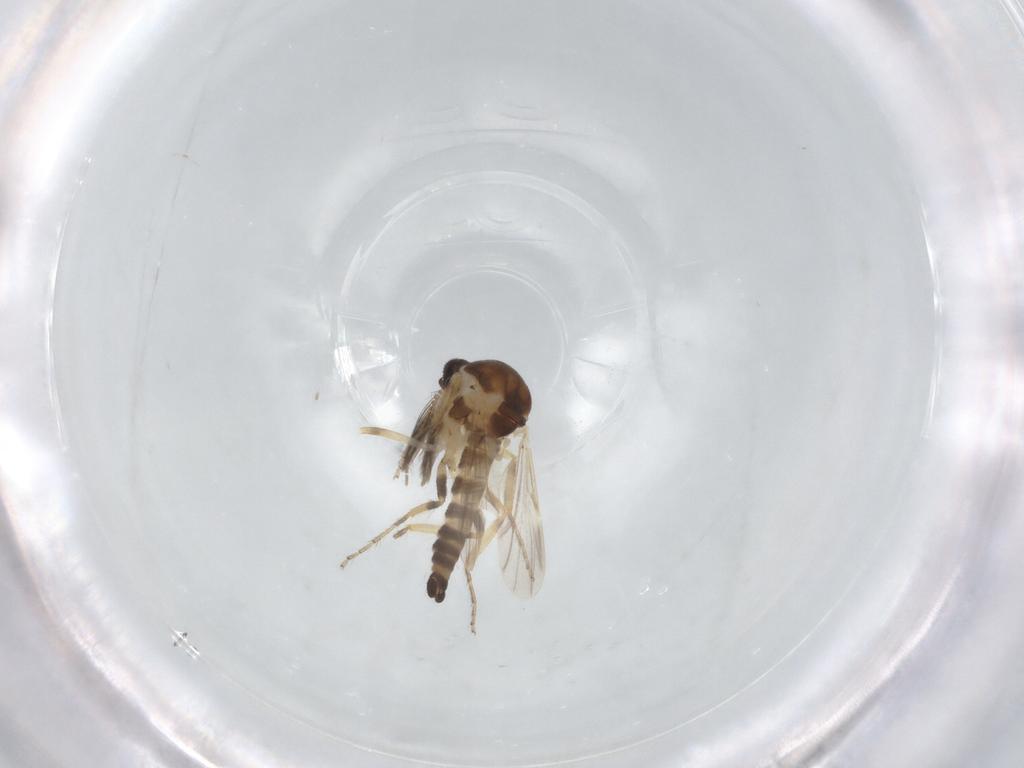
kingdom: Animalia
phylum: Arthropoda
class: Insecta
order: Diptera
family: Ceratopogonidae
